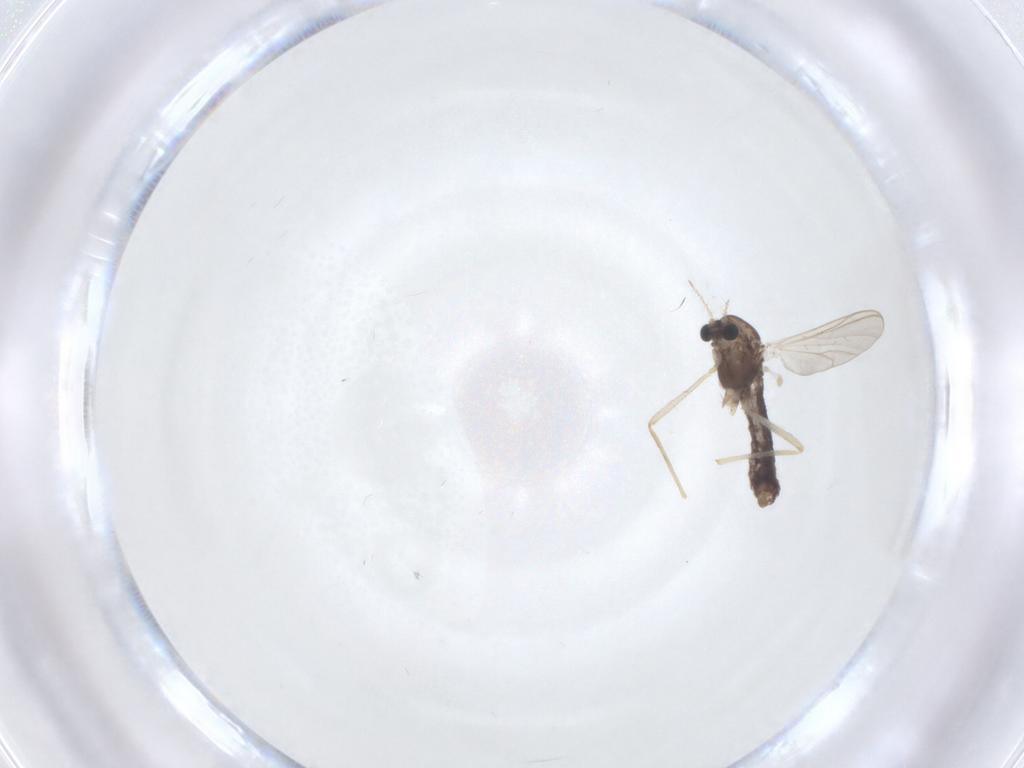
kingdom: Animalia
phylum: Arthropoda
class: Insecta
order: Diptera
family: Chironomidae
